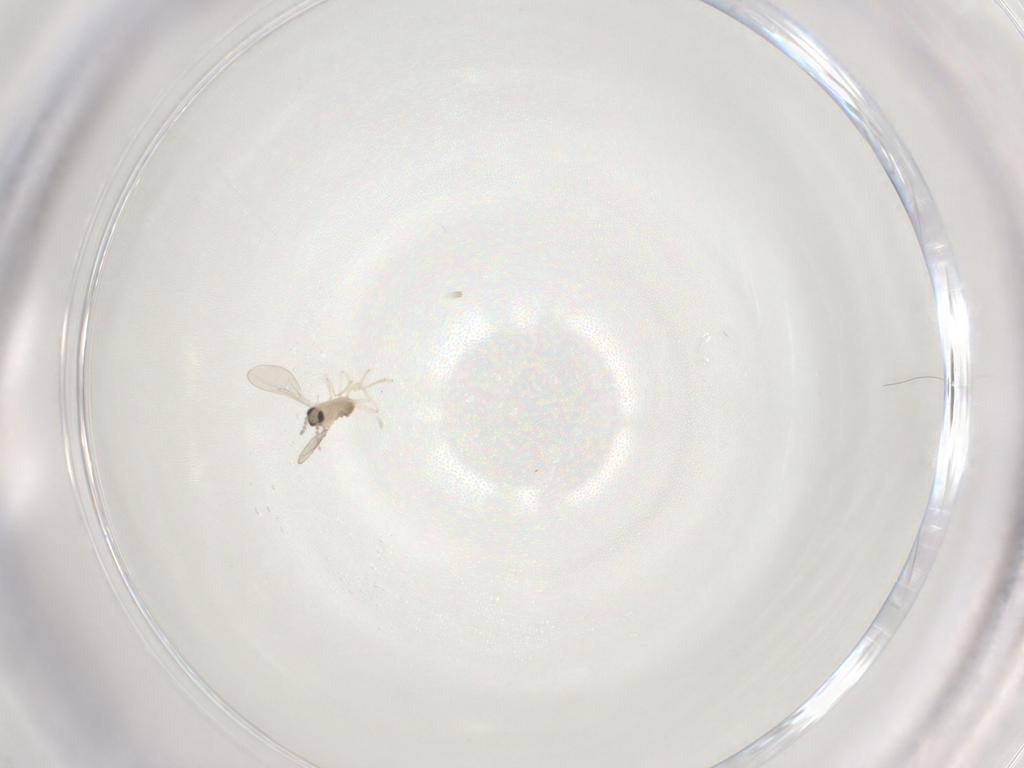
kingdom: Animalia
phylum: Arthropoda
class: Insecta
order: Diptera
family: Cecidomyiidae
